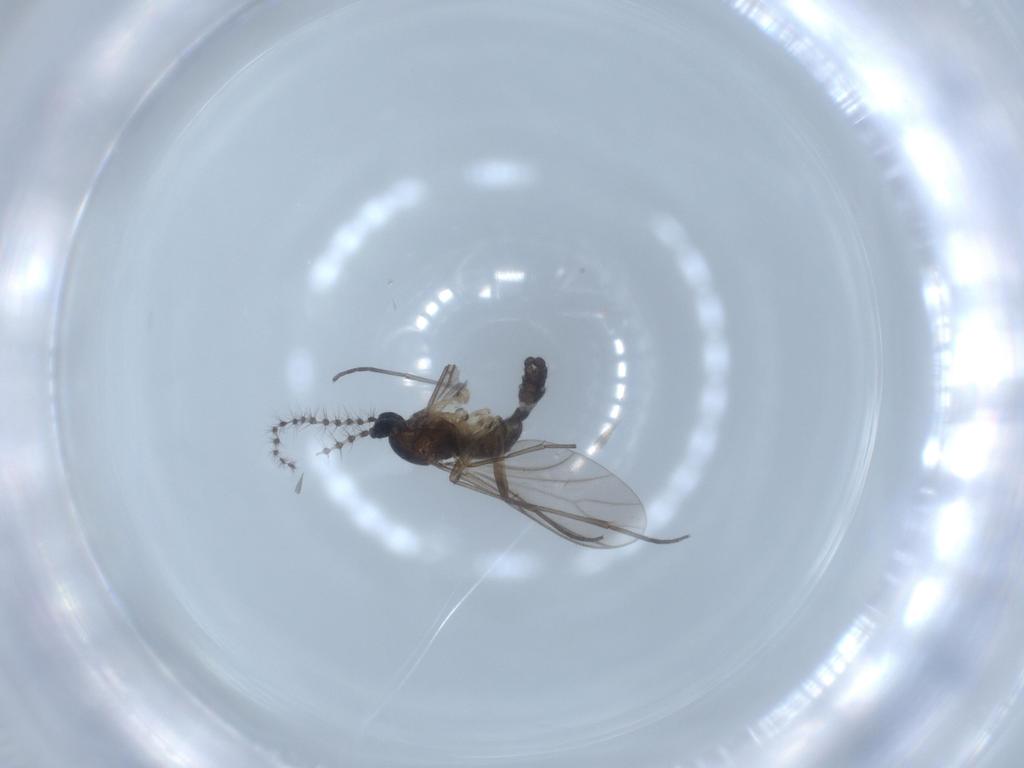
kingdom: Animalia
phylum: Arthropoda
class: Insecta
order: Diptera
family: Sciaridae
